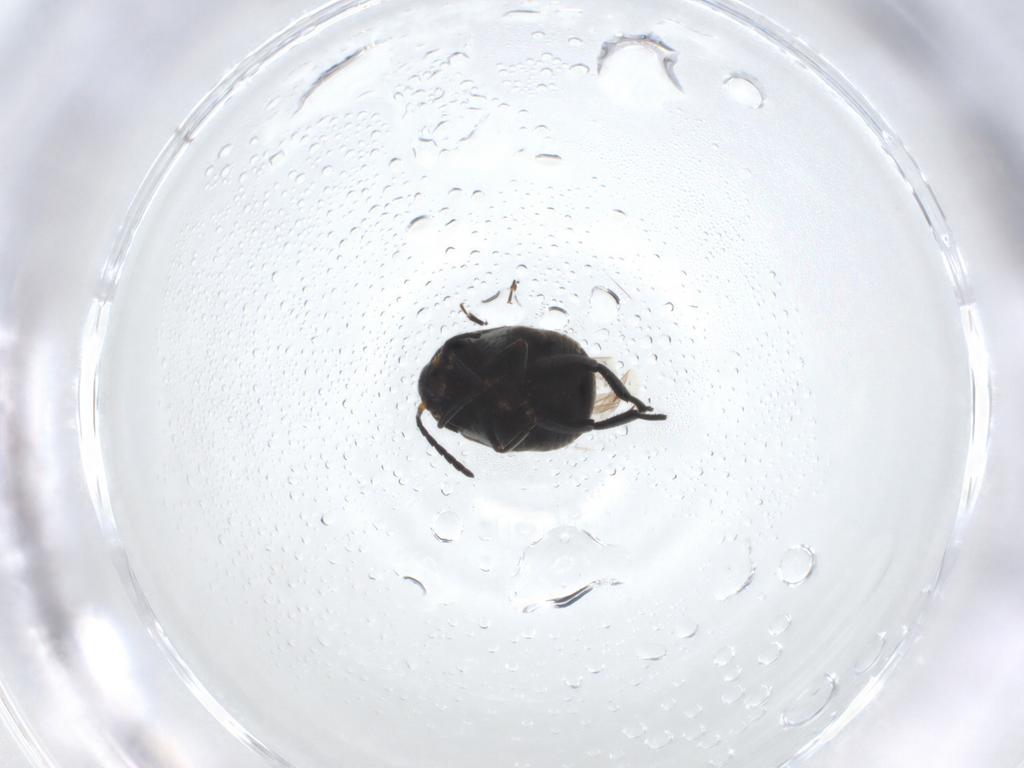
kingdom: Animalia
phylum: Arthropoda
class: Insecta
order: Coleoptera
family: Chrysomelidae
